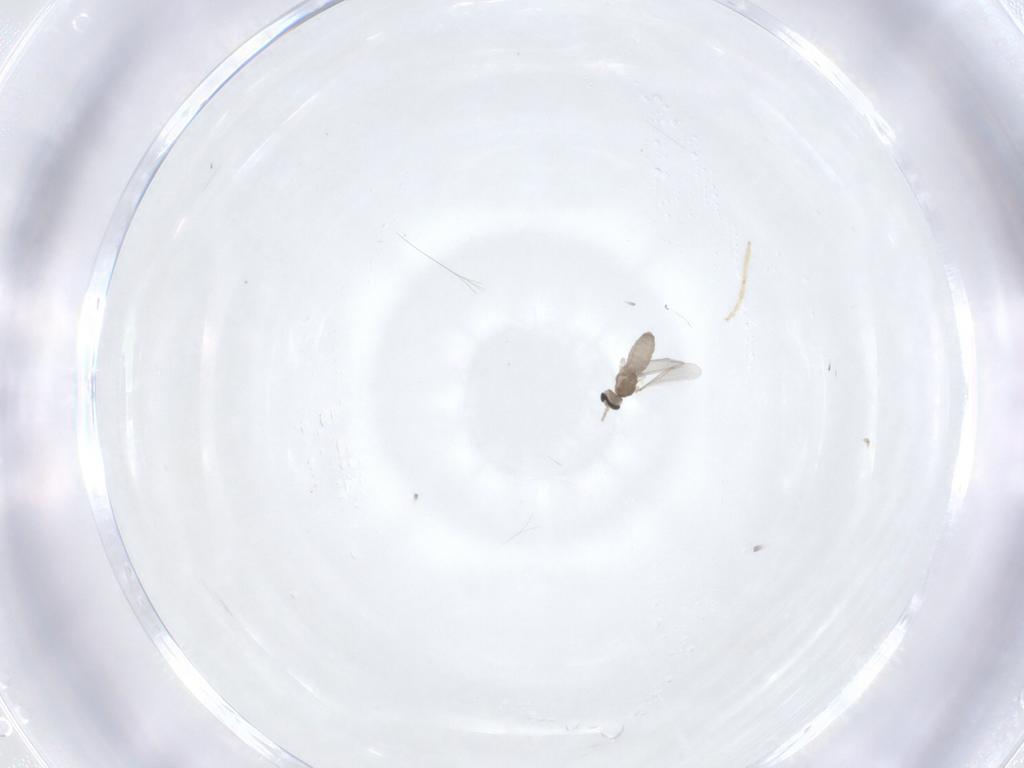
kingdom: Animalia
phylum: Arthropoda
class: Insecta
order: Diptera
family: Chironomidae
